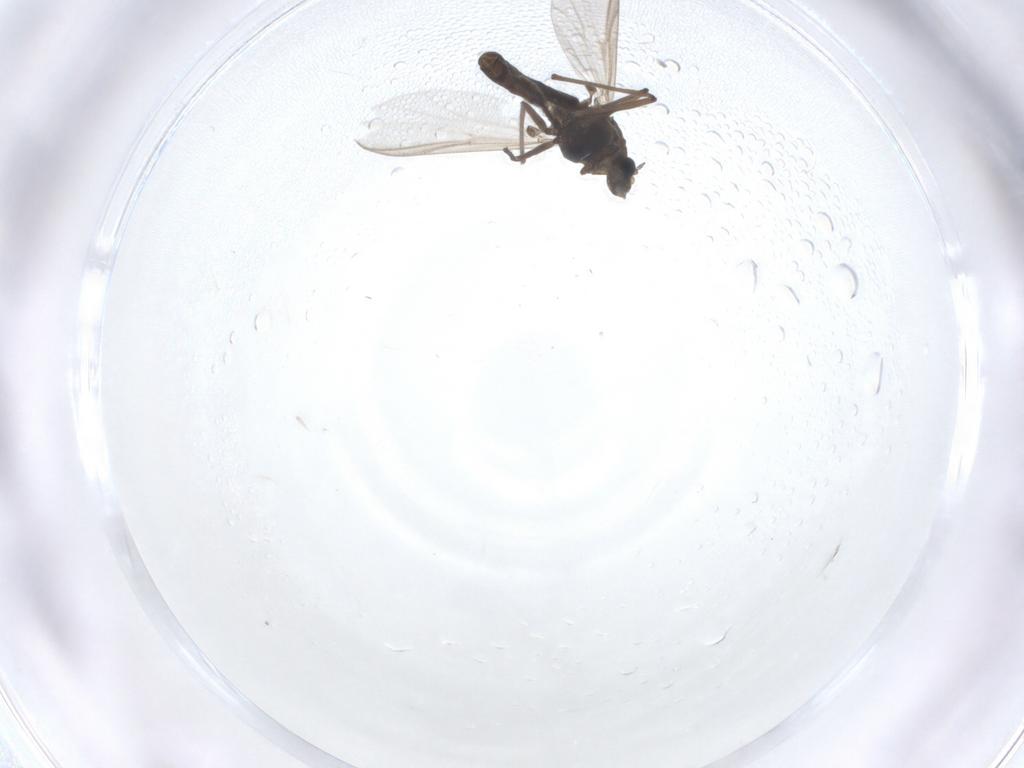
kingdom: Animalia
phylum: Arthropoda
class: Insecta
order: Diptera
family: Chironomidae
